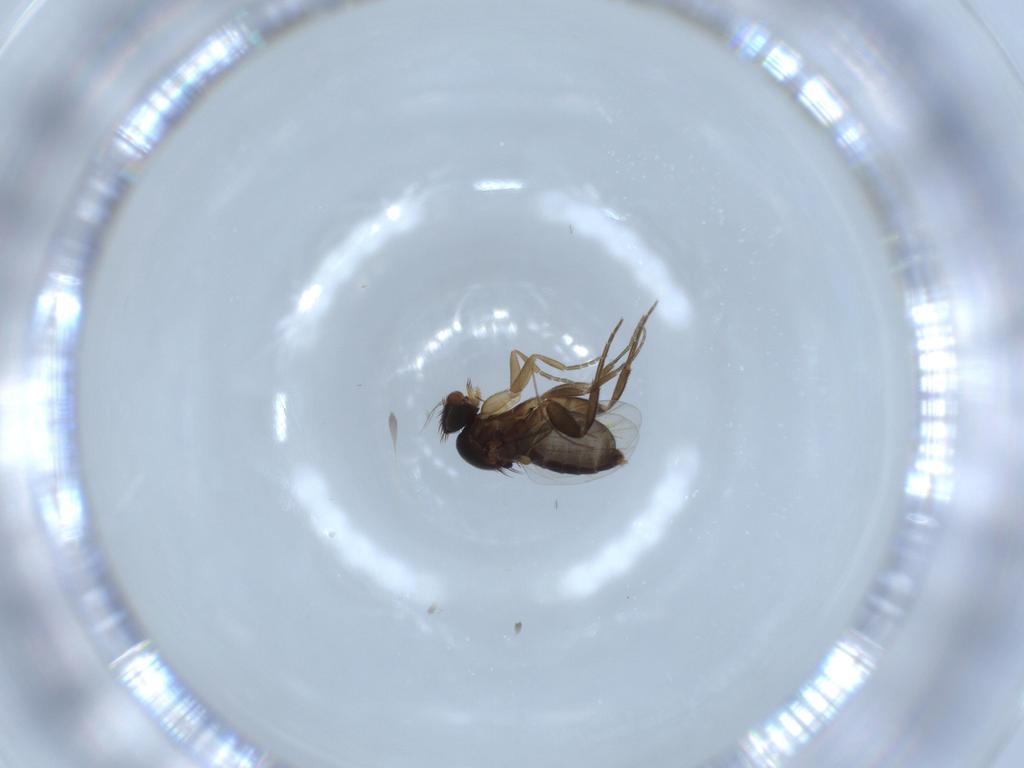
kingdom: Animalia
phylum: Arthropoda
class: Insecta
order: Diptera
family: Phoridae
